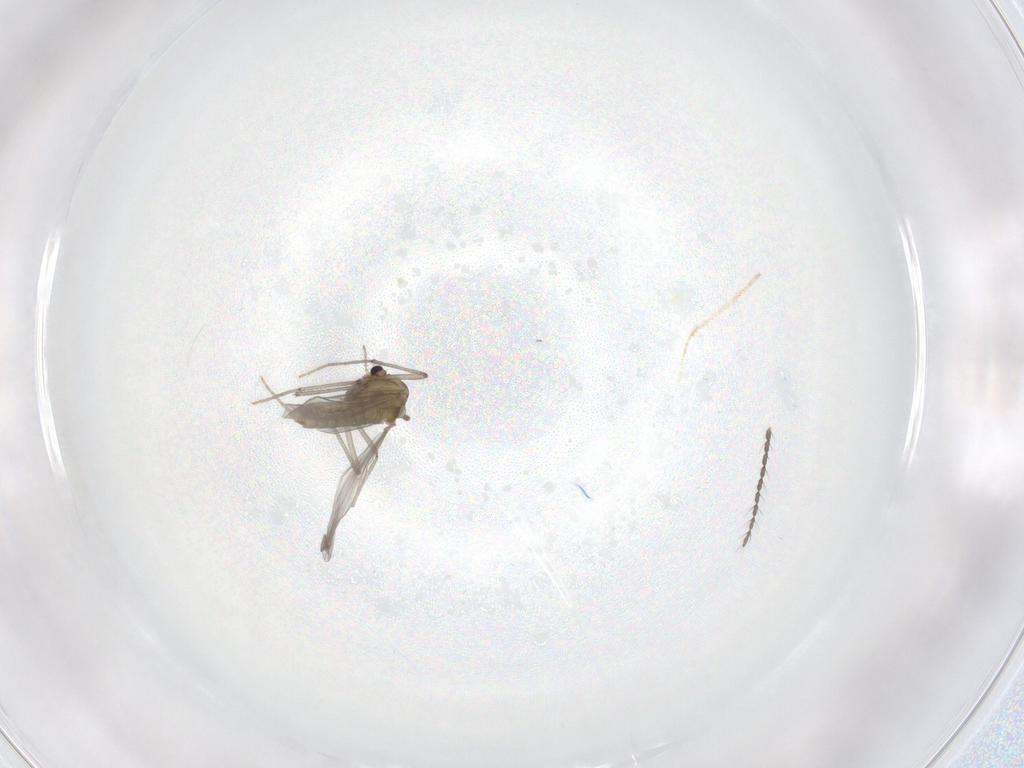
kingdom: Animalia
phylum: Arthropoda
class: Insecta
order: Diptera
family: Chironomidae
